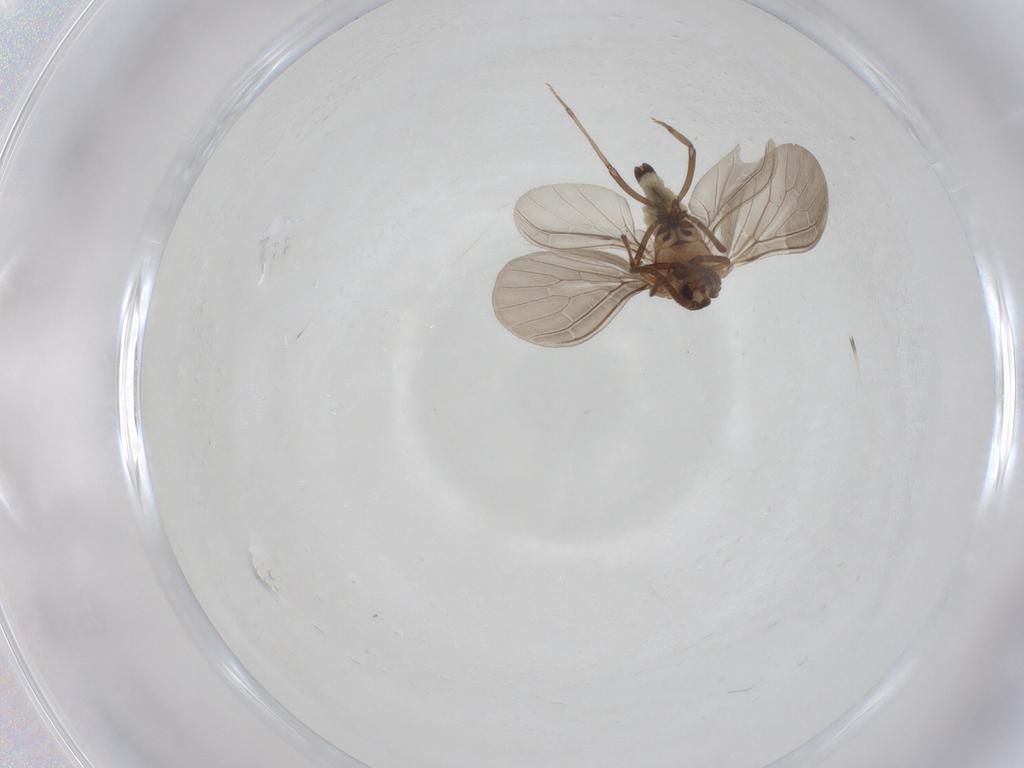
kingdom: Animalia
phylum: Arthropoda
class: Insecta
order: Neuroptera
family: Coniopterygidae
